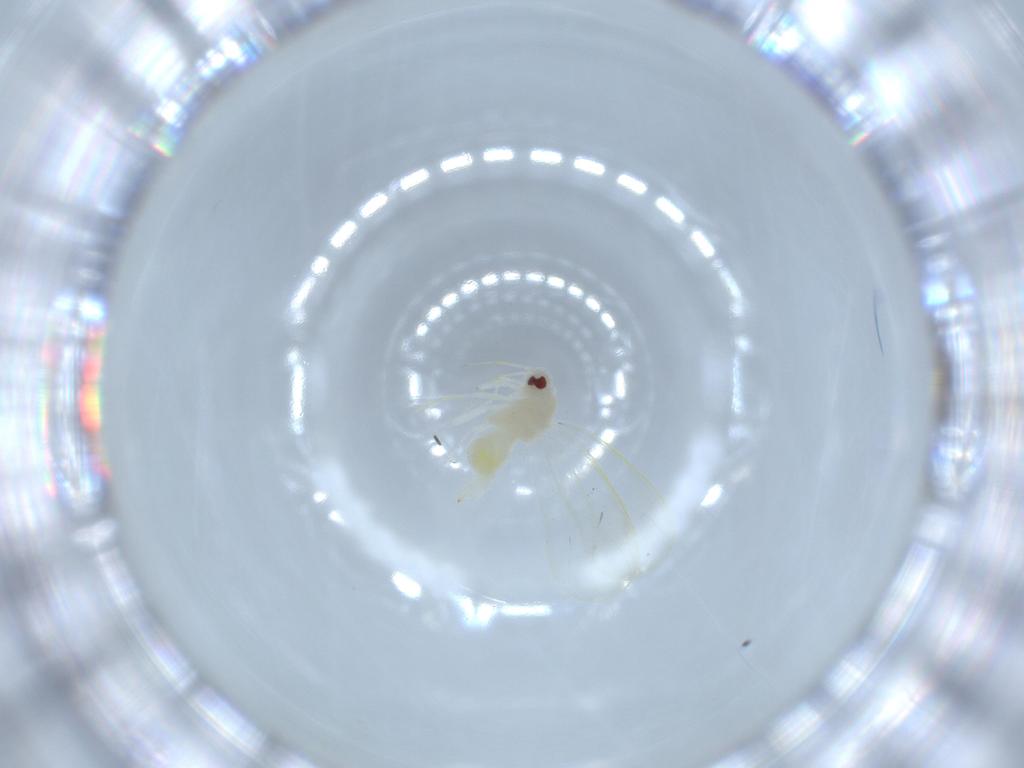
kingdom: Animalia
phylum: Arthropoda
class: Insecta
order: Hemiptera
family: Aleyrodidae
